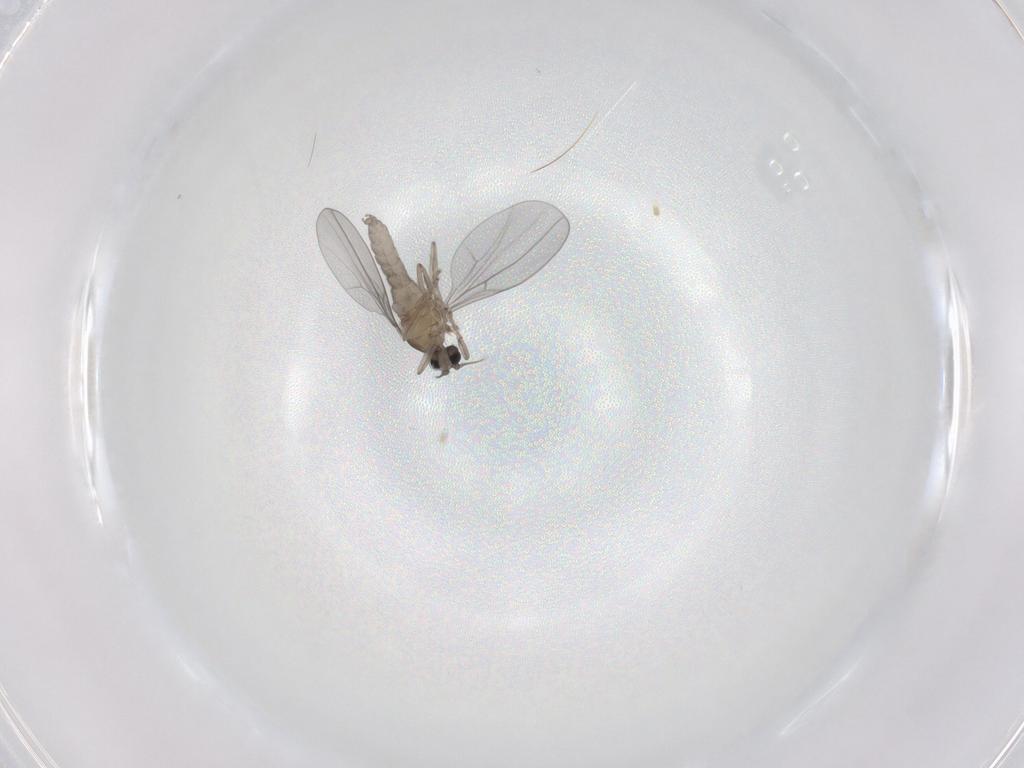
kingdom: Animalia
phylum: Arthropoda
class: Insecta
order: Diptera
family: Cecidomyiidae
